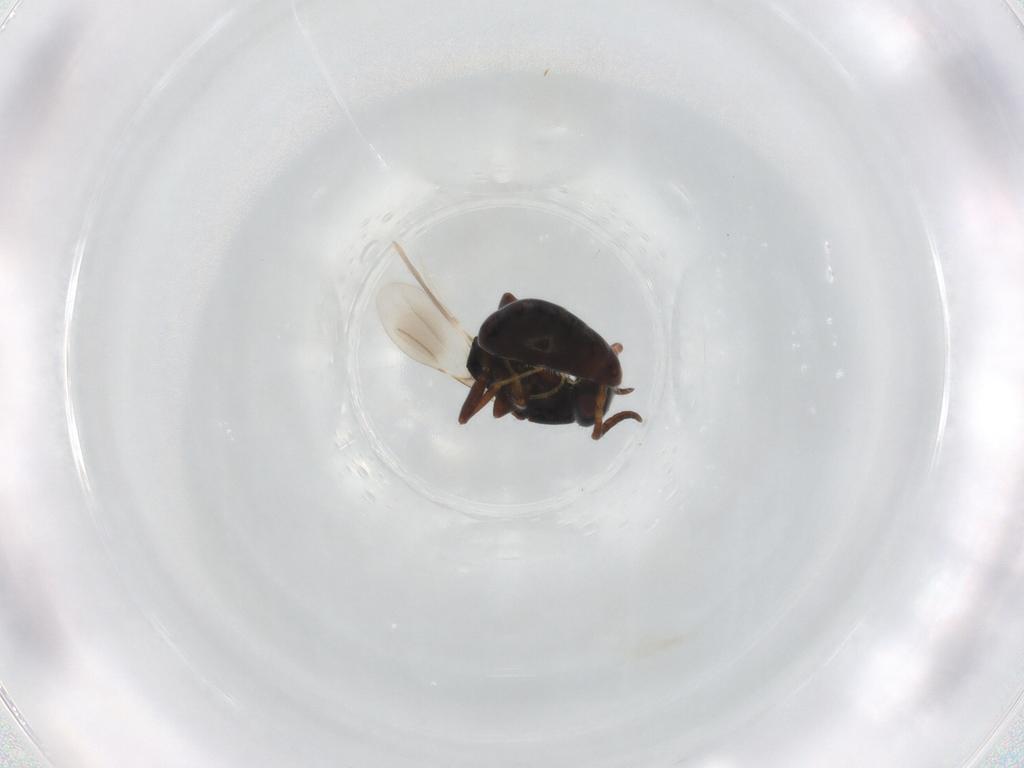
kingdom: Animalia
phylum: Arthropoda
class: Insecta
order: Hymenoptera
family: Bethylidae
